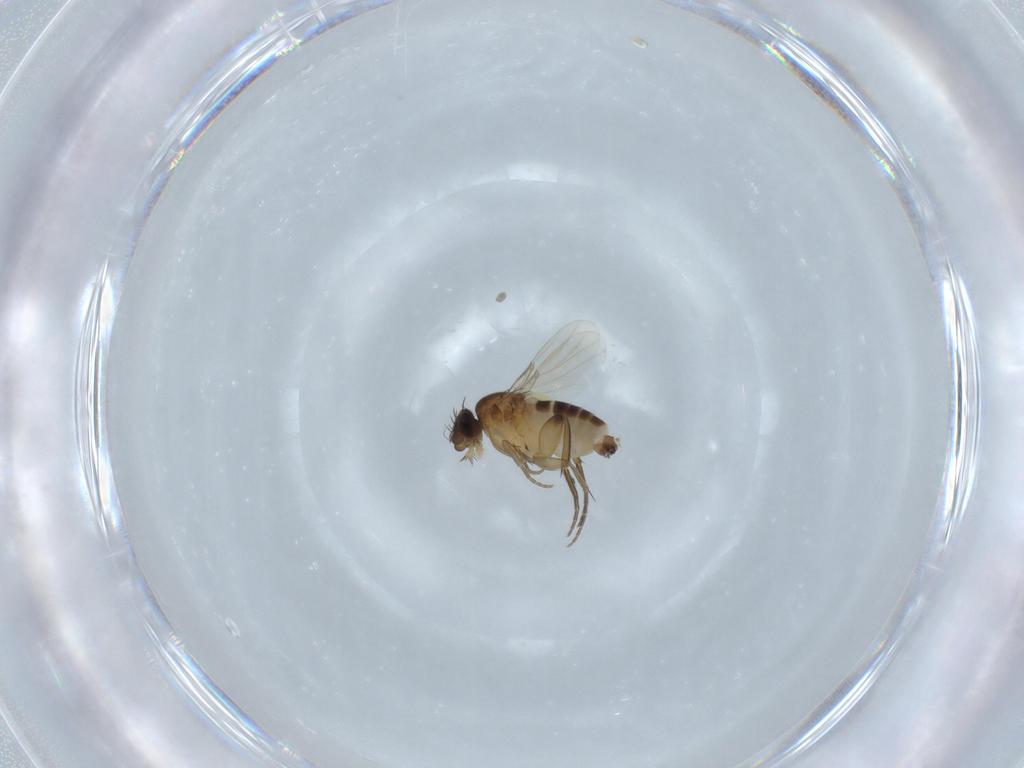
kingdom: Animalia
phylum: Arthropoda
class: Insecta
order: Diptera
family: Phoridae
